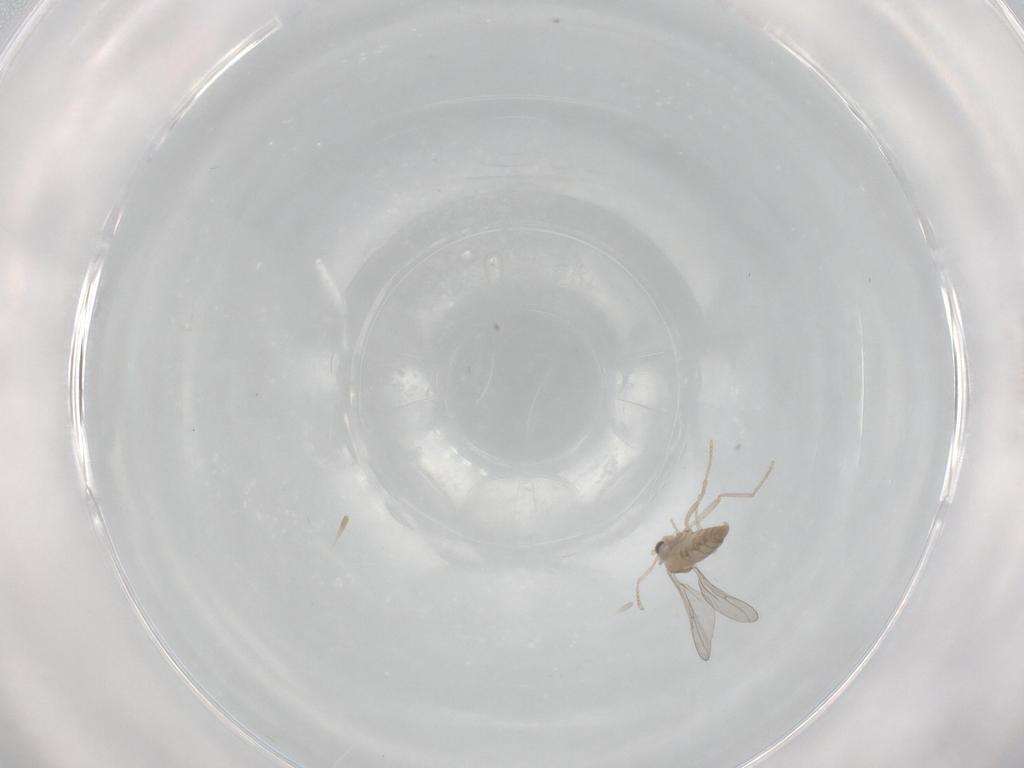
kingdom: Animalia
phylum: Arthropoda
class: Insecta
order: Diptera
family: Cecidomyiidae
